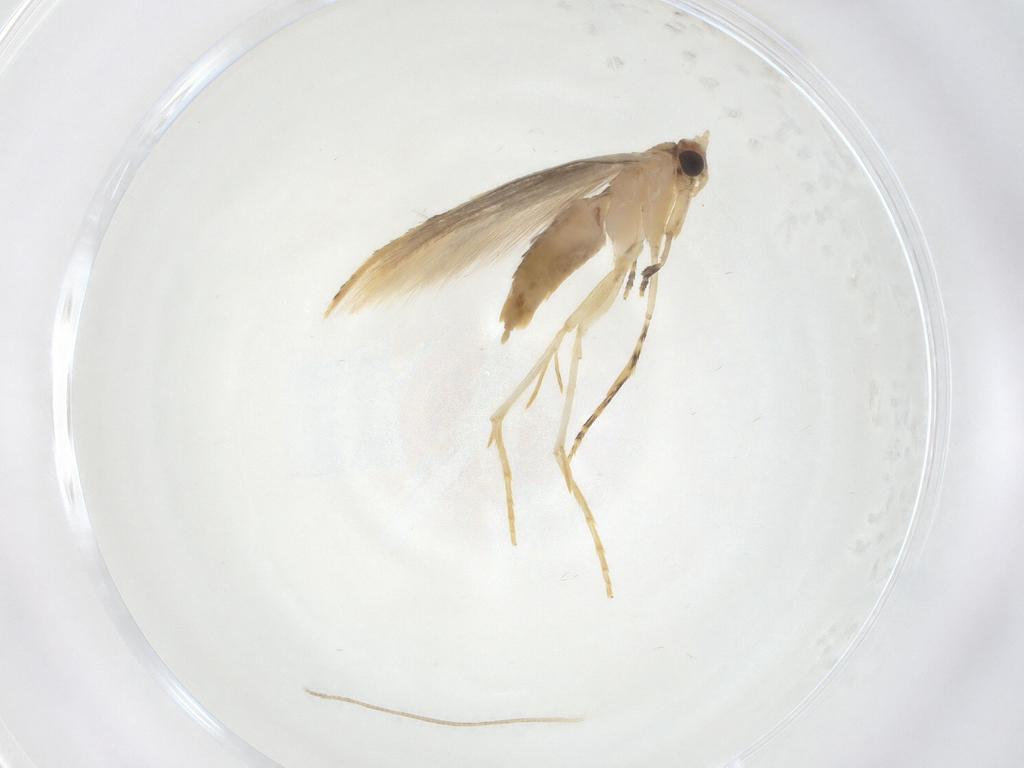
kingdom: Animalia
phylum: Arthropoda
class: Insecta
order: Lepidoptera
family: Tineidae
